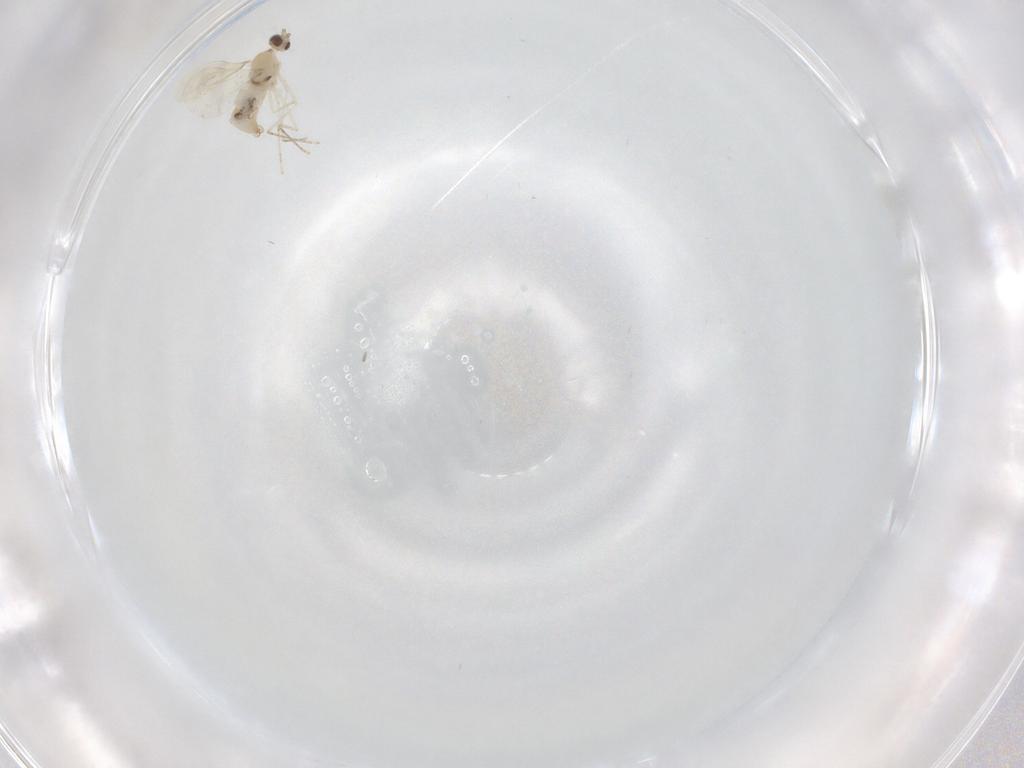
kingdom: Animalia
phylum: Arthropoda
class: Insecta
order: Diptera
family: Cecidomyiidae
